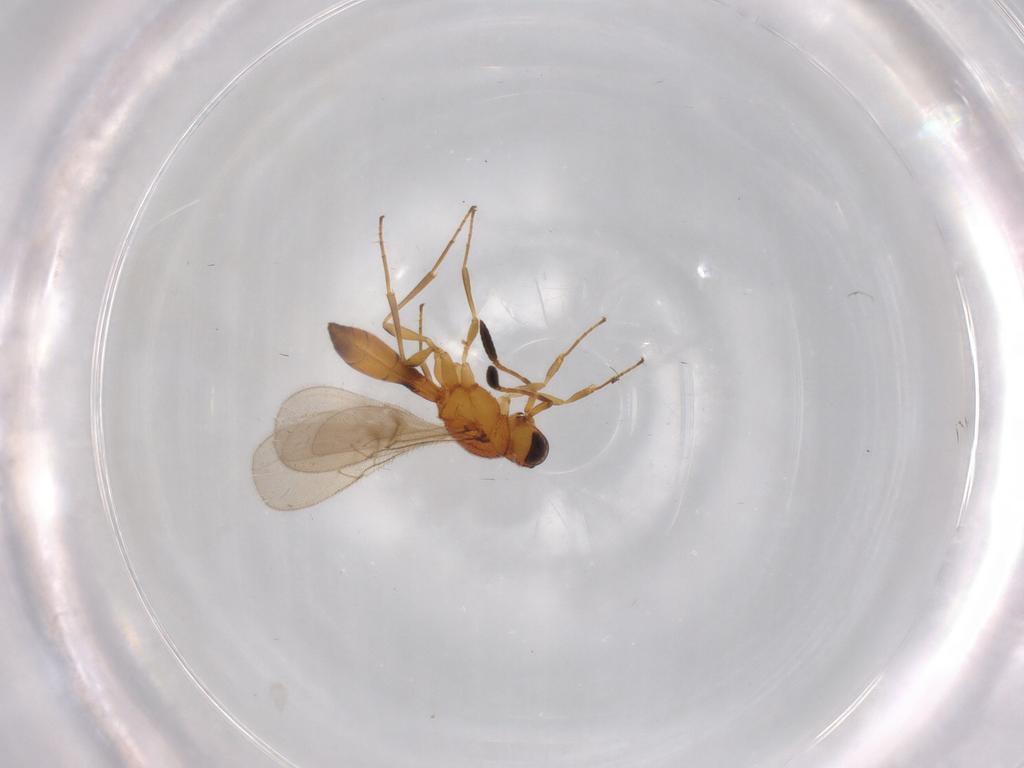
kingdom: Animalia
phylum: Arthropoda
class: Insecta
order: Hymenoptera
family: Scelionidae
